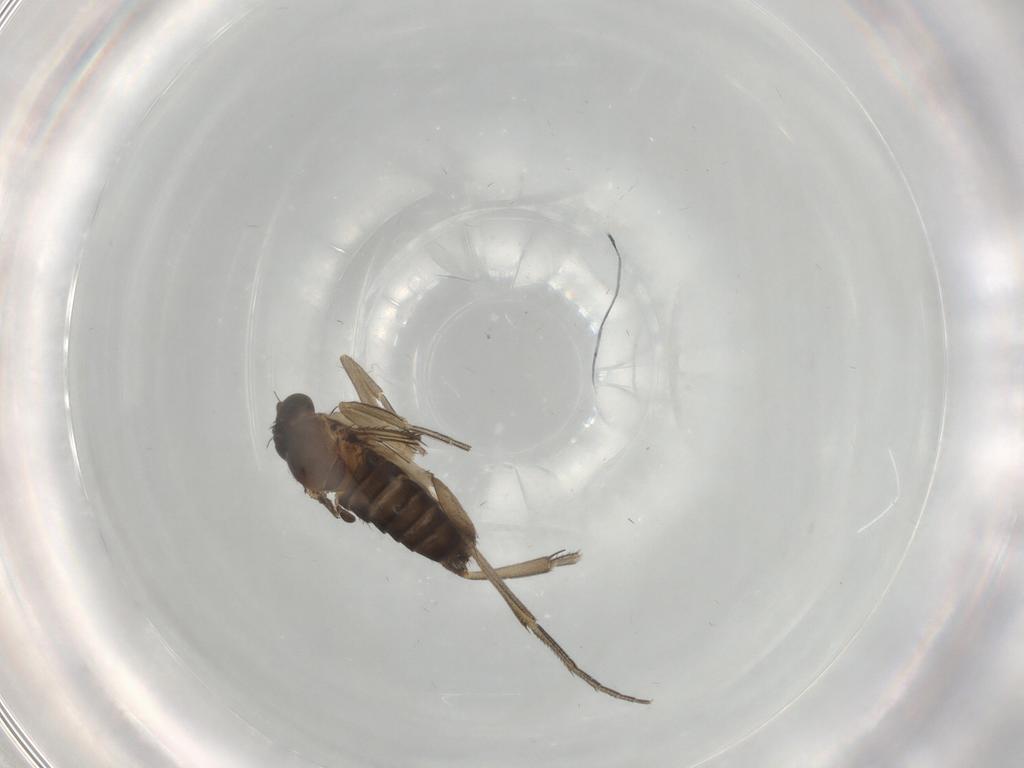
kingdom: Animalia
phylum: Arthropoda
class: Insecta
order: Diptera
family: Phoridae
